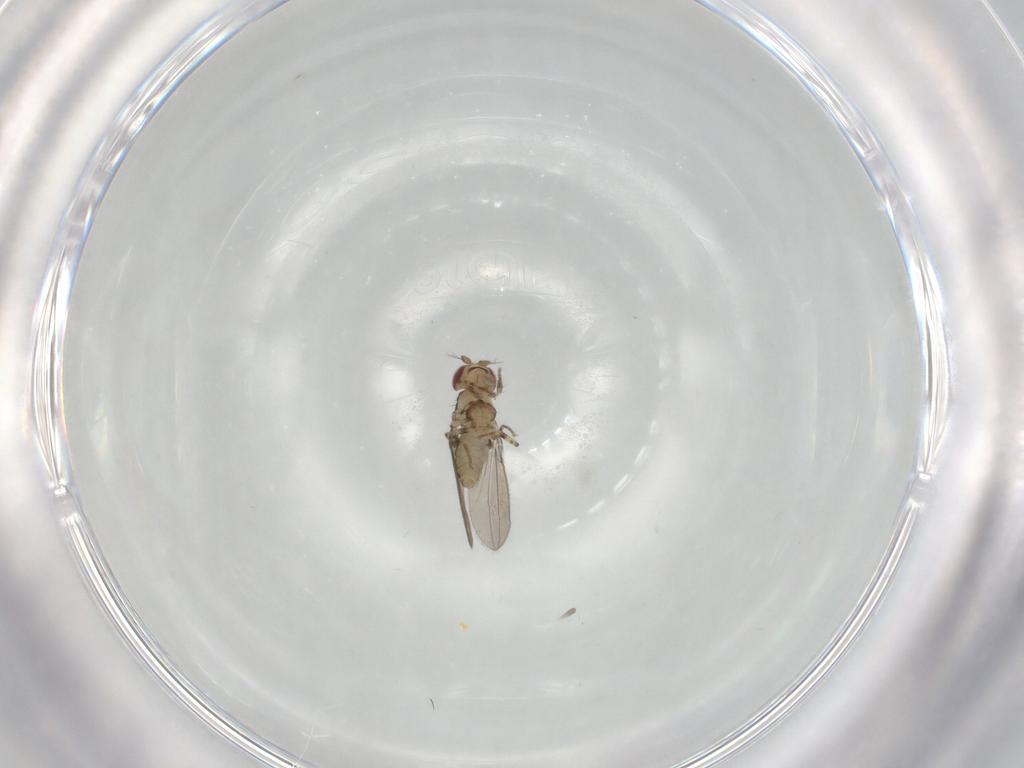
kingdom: Animalia
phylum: Arthropoda
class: Insecta
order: Diptera
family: Asteiidae
